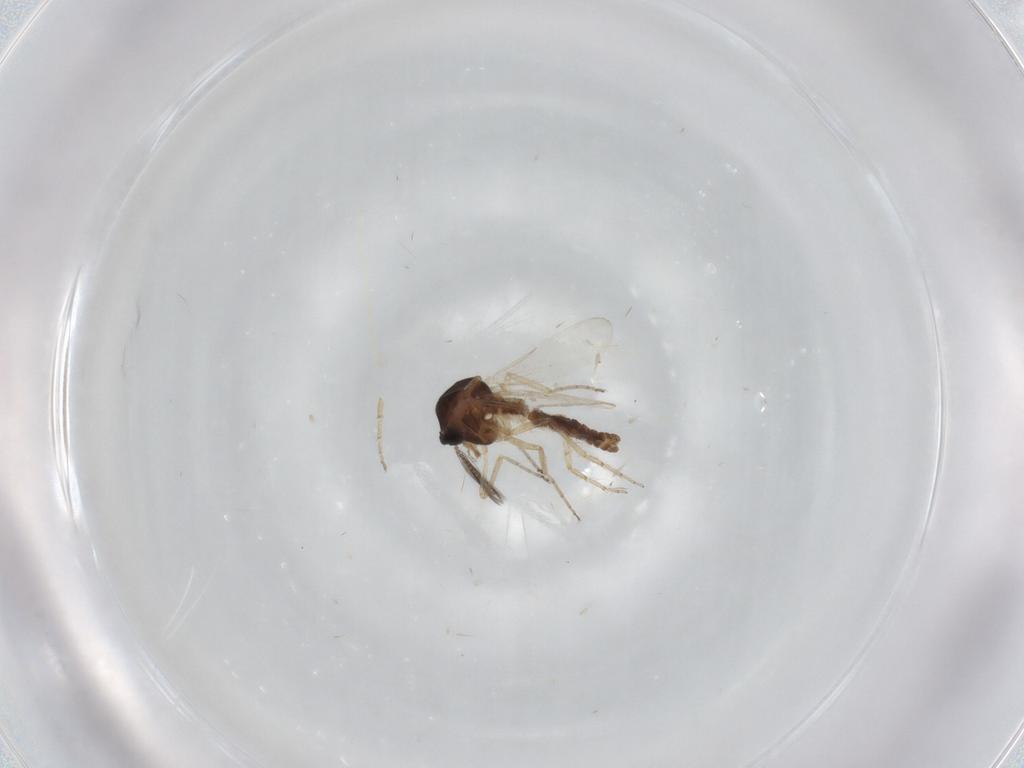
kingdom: Animalia
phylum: Arthropoda
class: Insecta
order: Diptera
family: Ceratopogonidae
